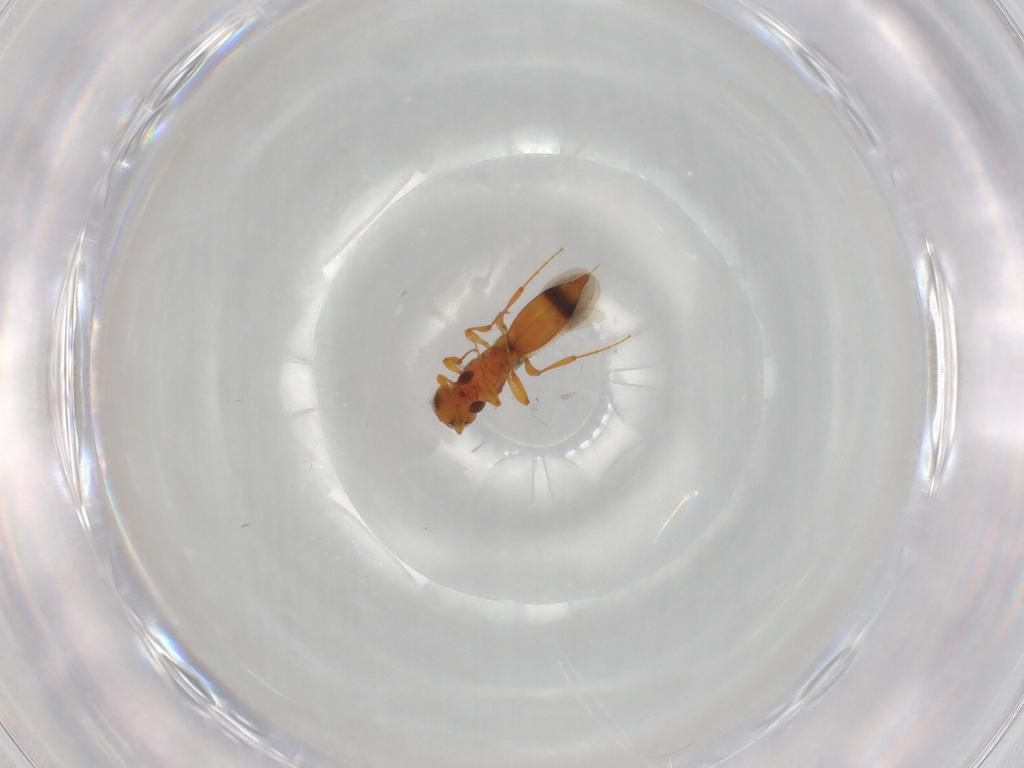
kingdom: Animalia
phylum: Arthropoda
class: Insecta
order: Hymenoptera
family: Platygastridae
